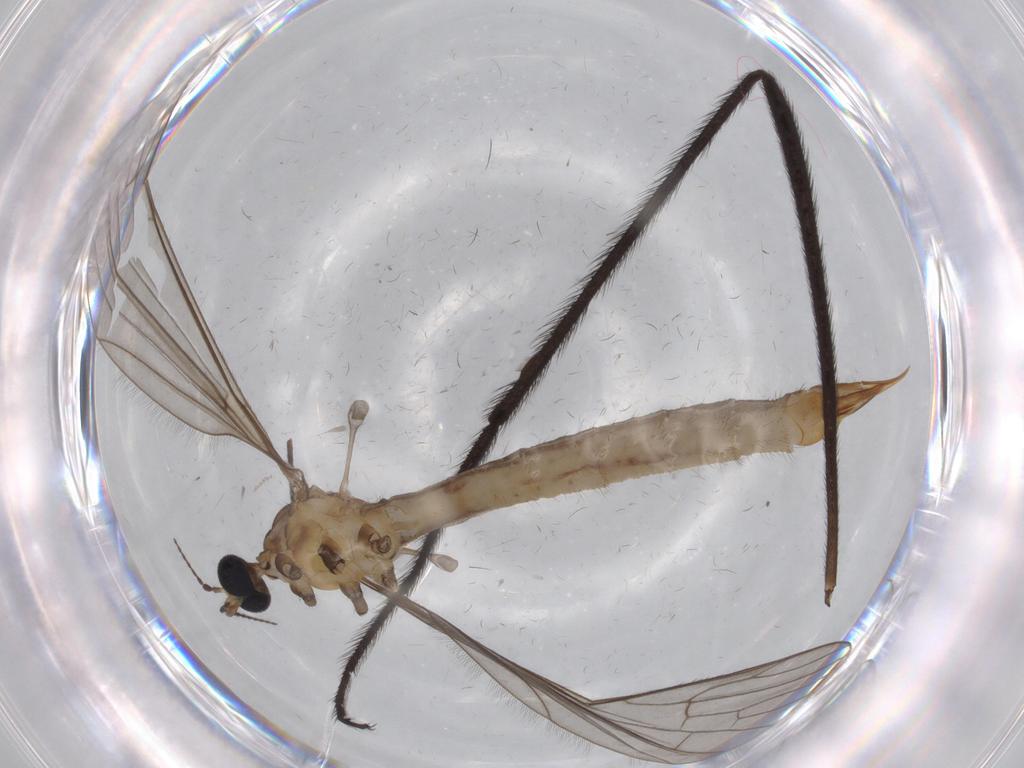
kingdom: Animalia
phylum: Arthropoda
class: Insecta
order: Diptera
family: Cecidomyiidae
